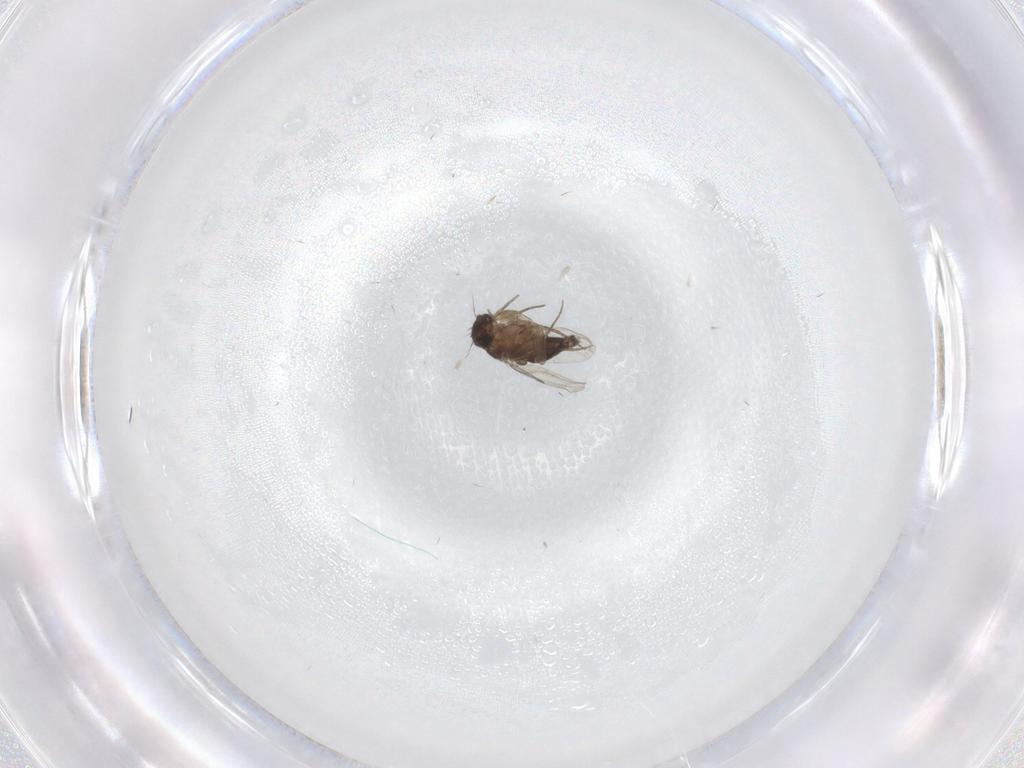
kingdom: Animalia
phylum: Arthropoda
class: Insecta
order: Diptera
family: Phoridae
